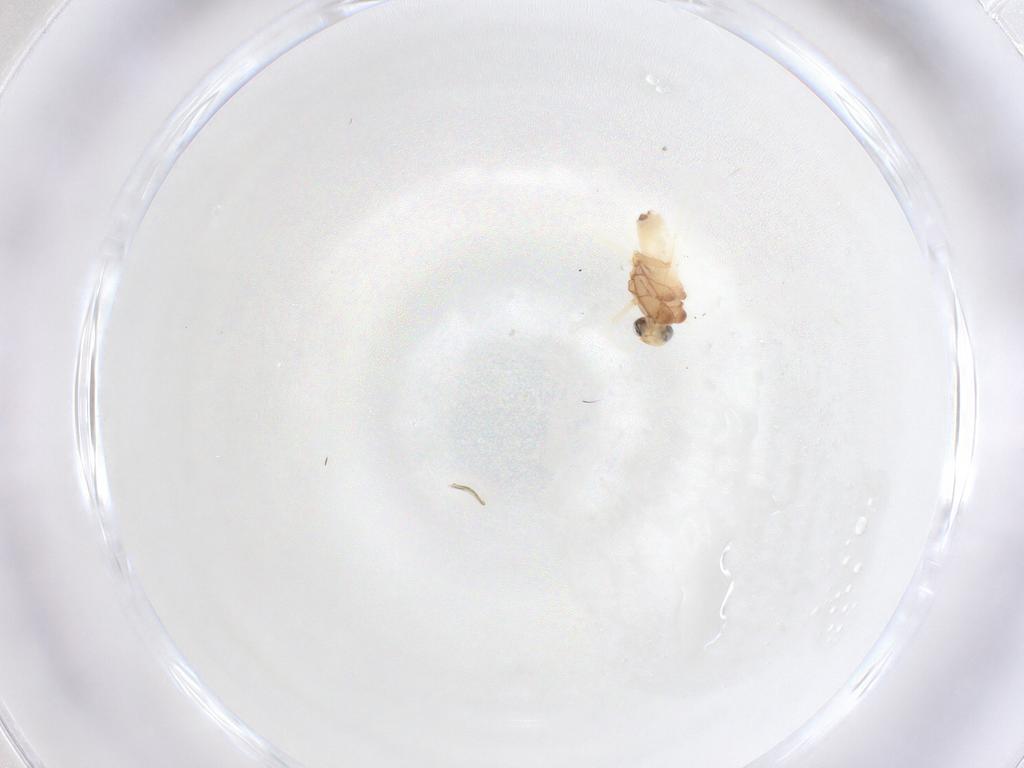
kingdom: Animalia
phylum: Arthropoda
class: Insecta
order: Neuroptera
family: Coniopterygidae
